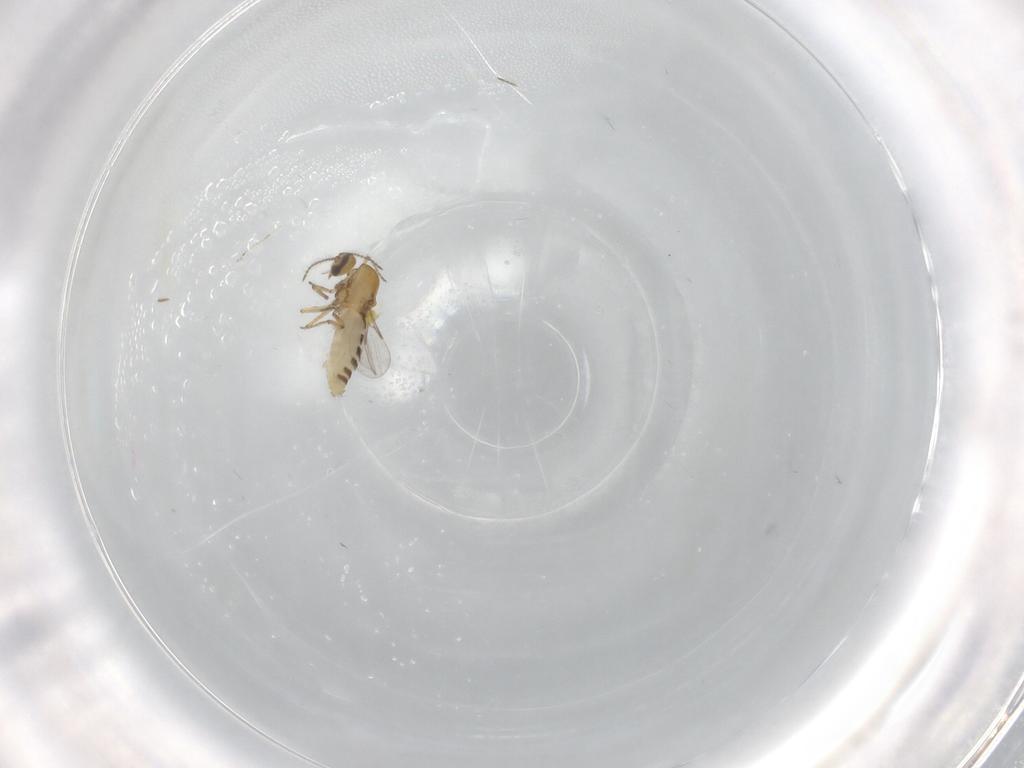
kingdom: Animalia
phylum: Arthropoda
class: Insecta
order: Diptera
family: Ceratopogonidae
